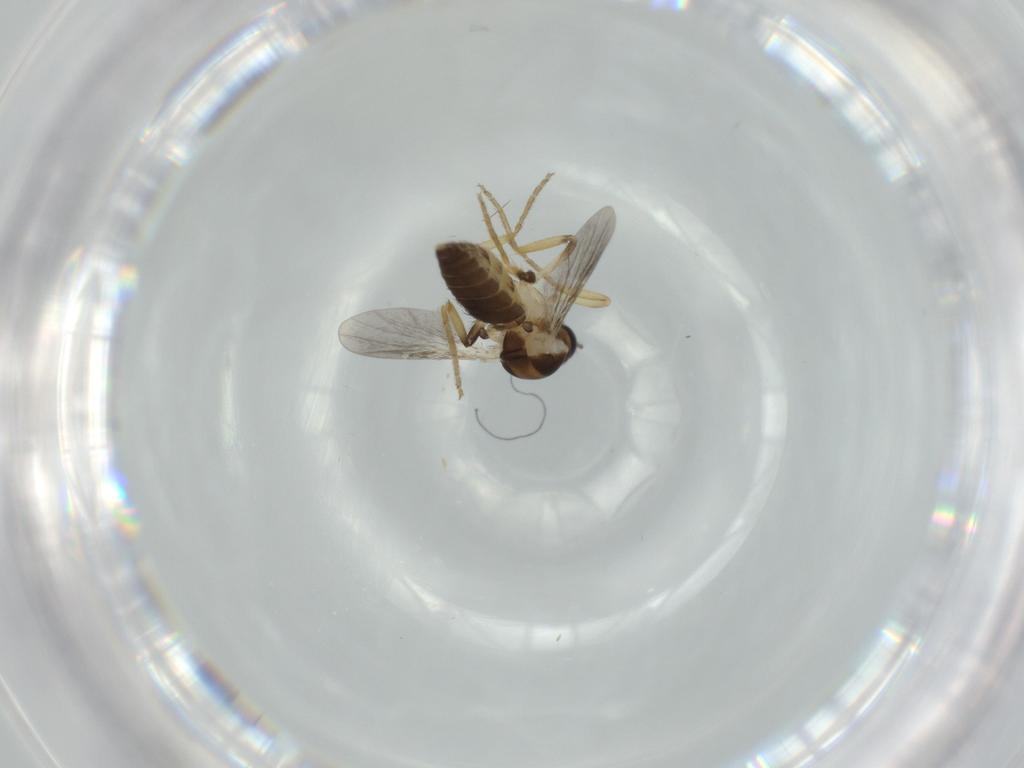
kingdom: Animalia
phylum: Arthropoda
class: Insecta
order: Diptera
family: Ceratopogonidae
